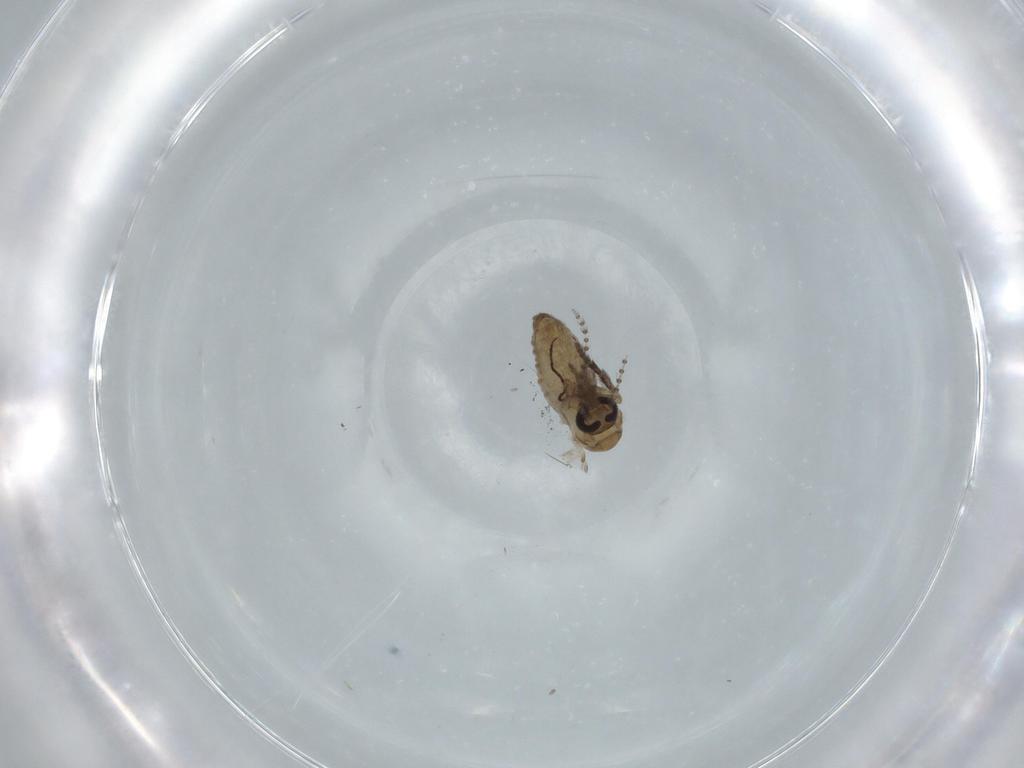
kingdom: Animalia
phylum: Arthropoda
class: Insecta
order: Diptera
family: Psychodidae
